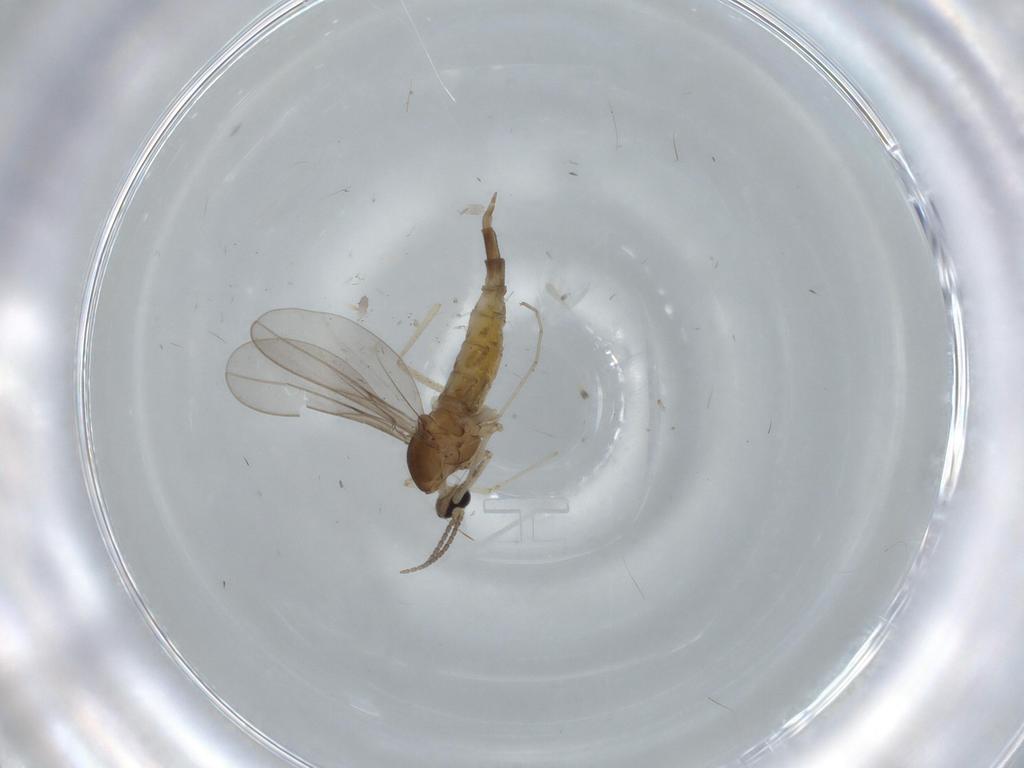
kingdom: Animalia
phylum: Arthropoda
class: Insecta
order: Diptera
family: Cecidomyiidae
